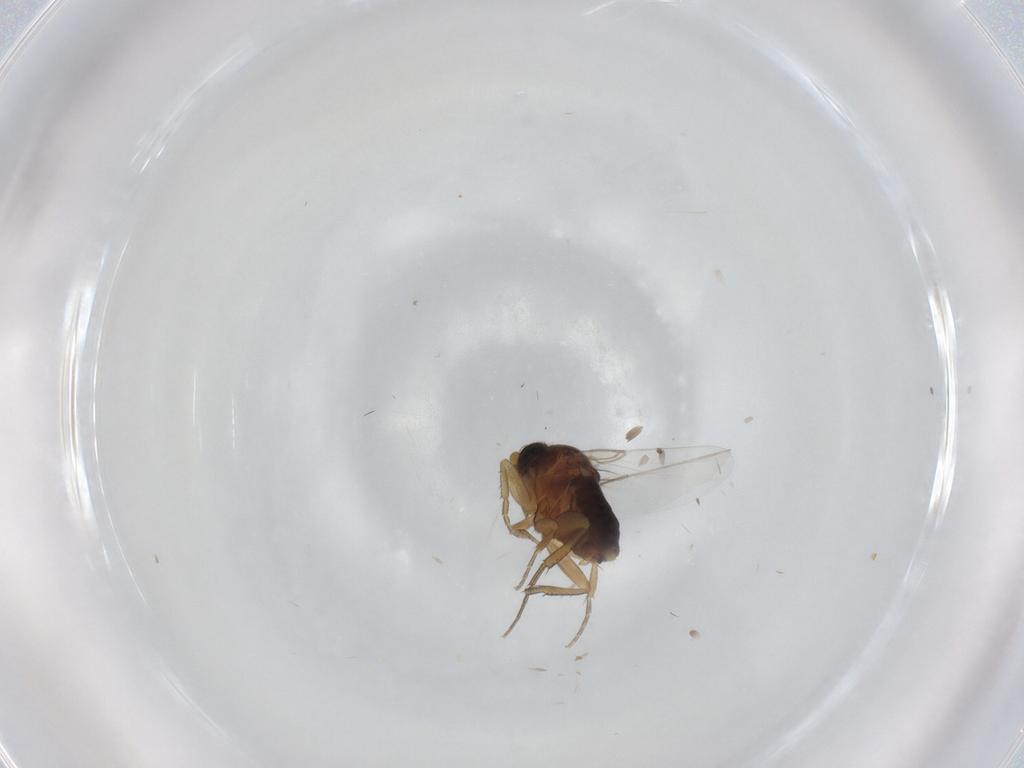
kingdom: Animalia
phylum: Arthropoda
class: Insecta
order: Diptera
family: Phoridae
